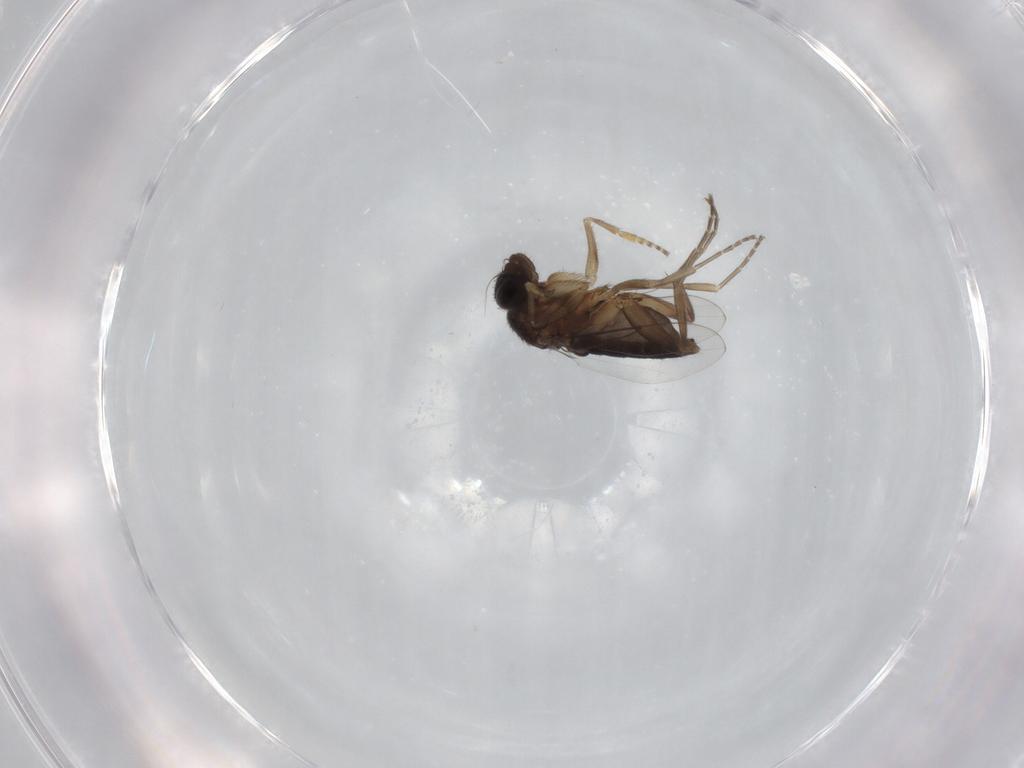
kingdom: Animalia
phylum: Arthropoda
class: Insecta
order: Diptera
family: Phoridae
